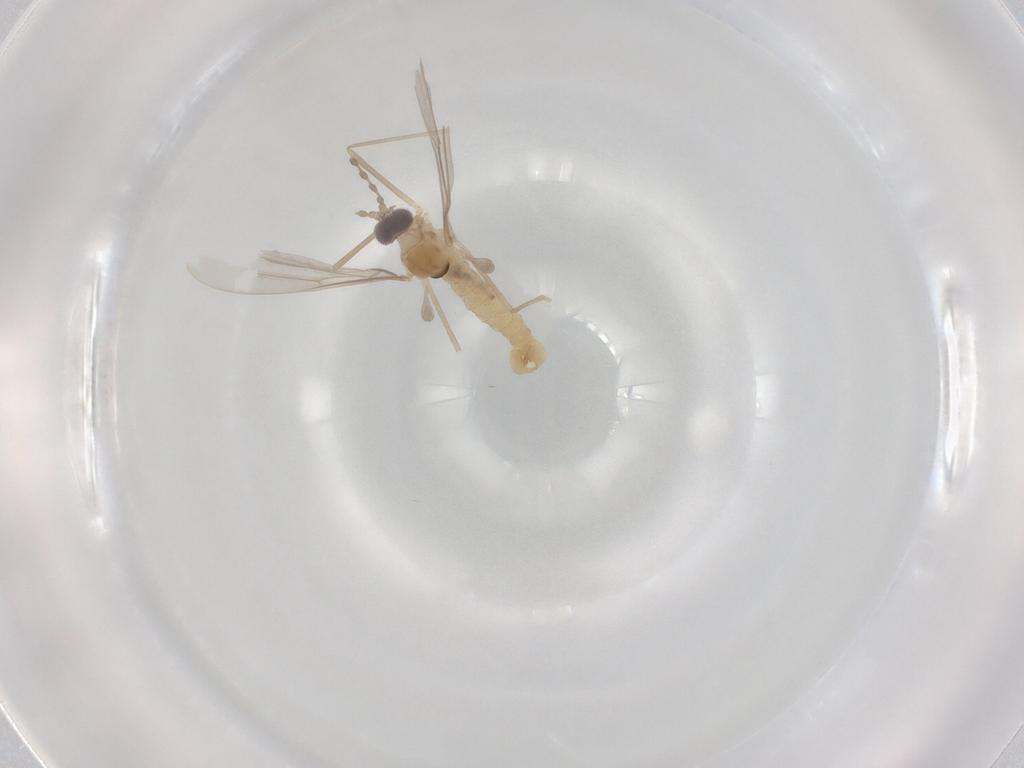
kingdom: Animalia
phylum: Arthropoda
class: Insecta
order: Diptera
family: Cecidomyiidae
